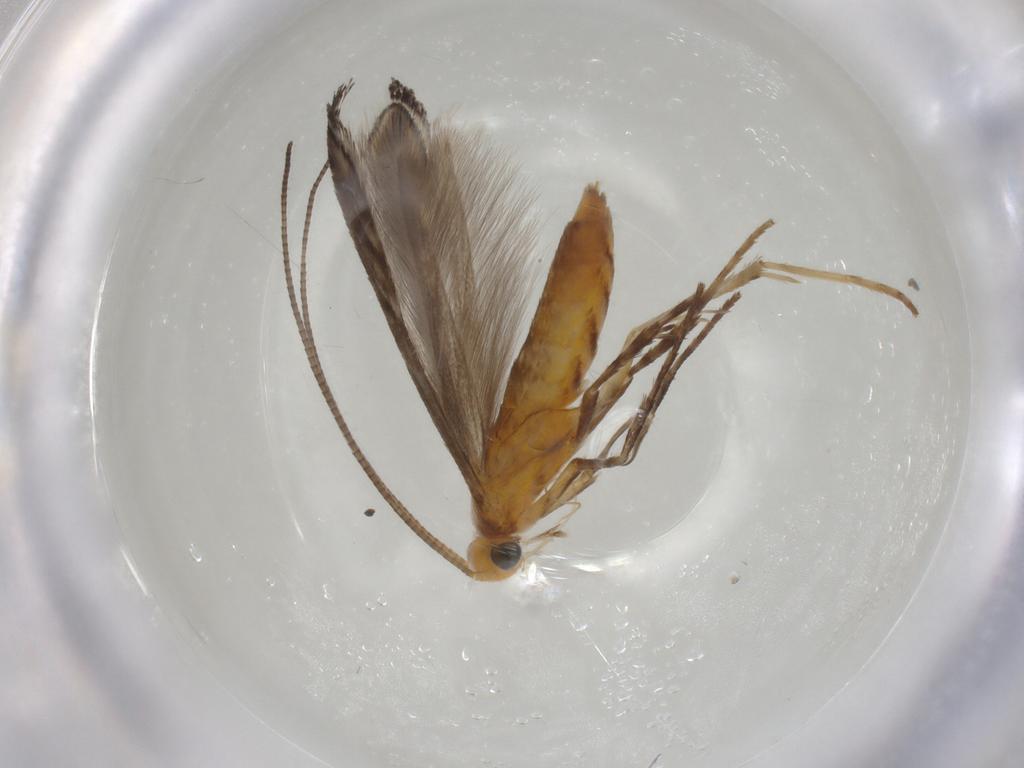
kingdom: Animalia
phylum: Arthropoda
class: Insecta
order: Lepidoptera
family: Gracillariidae
